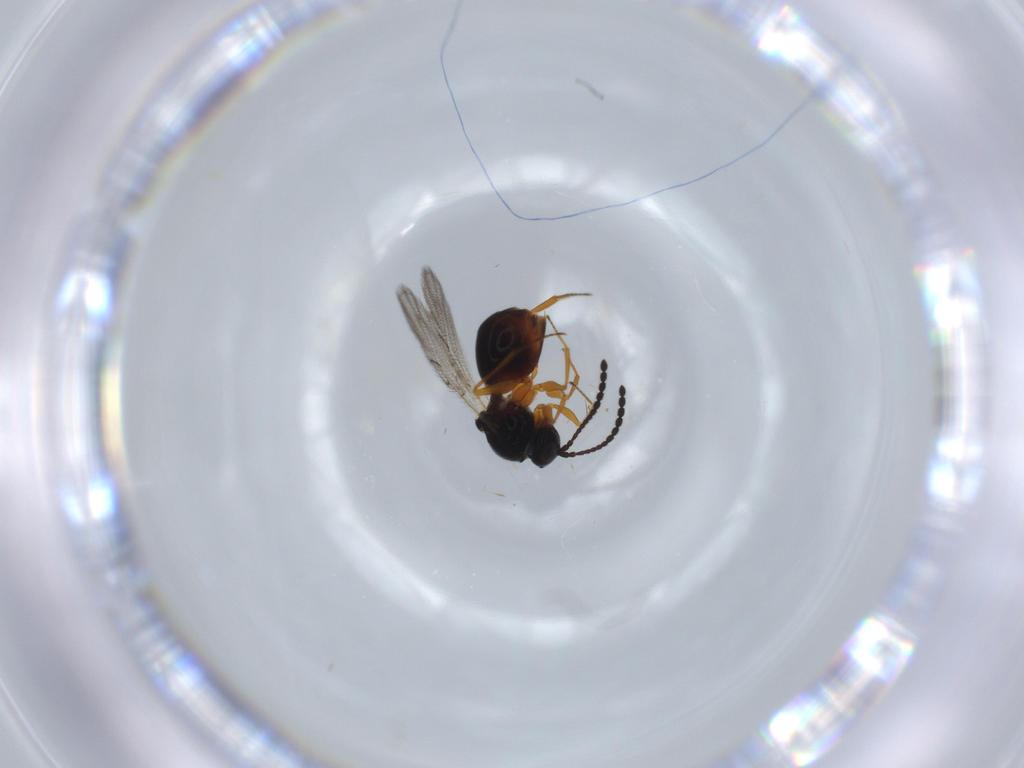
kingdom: Animalia
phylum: Arthropoda
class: Insecta
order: Hymenoptera
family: Figitidae
